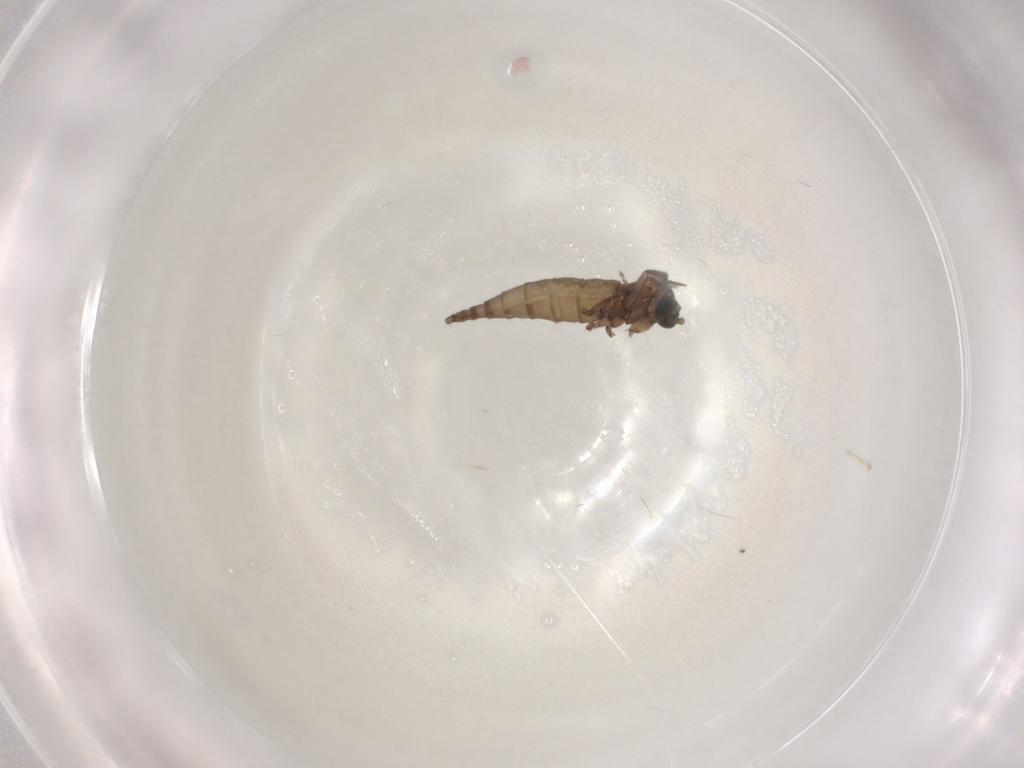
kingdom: Animalia
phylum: Arthropoda
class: Insecta
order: Diptera
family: Sciaridae
